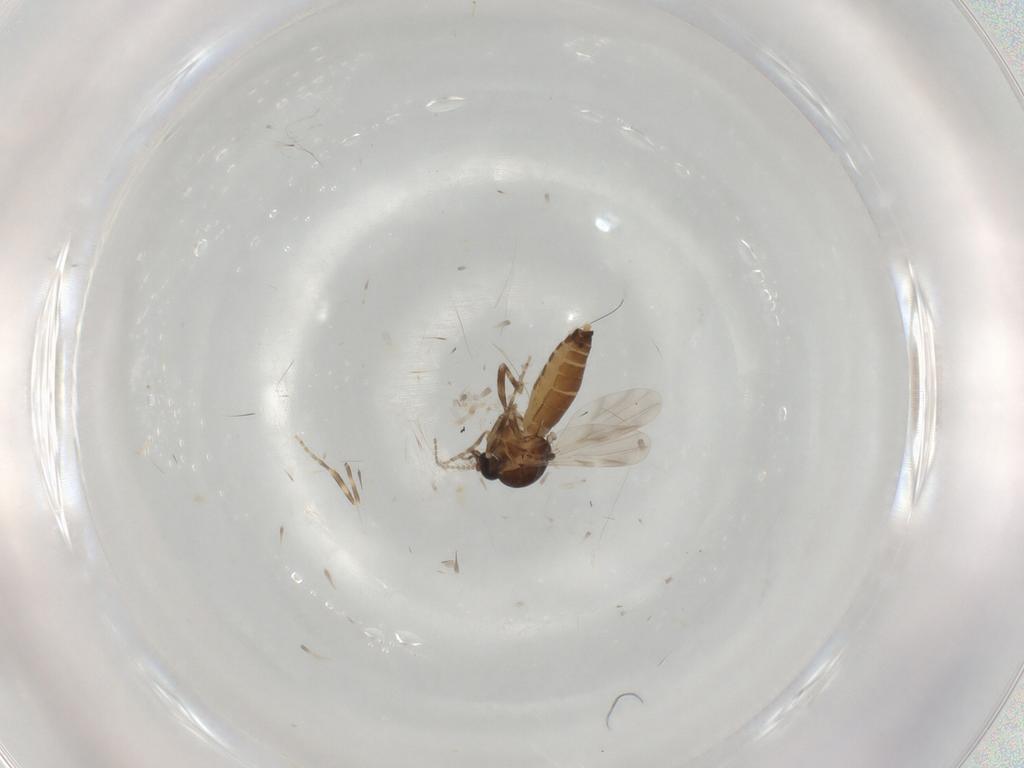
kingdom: Animalia
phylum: Arthropoda
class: Insecta
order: Diptera
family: Ceratopogonidae
